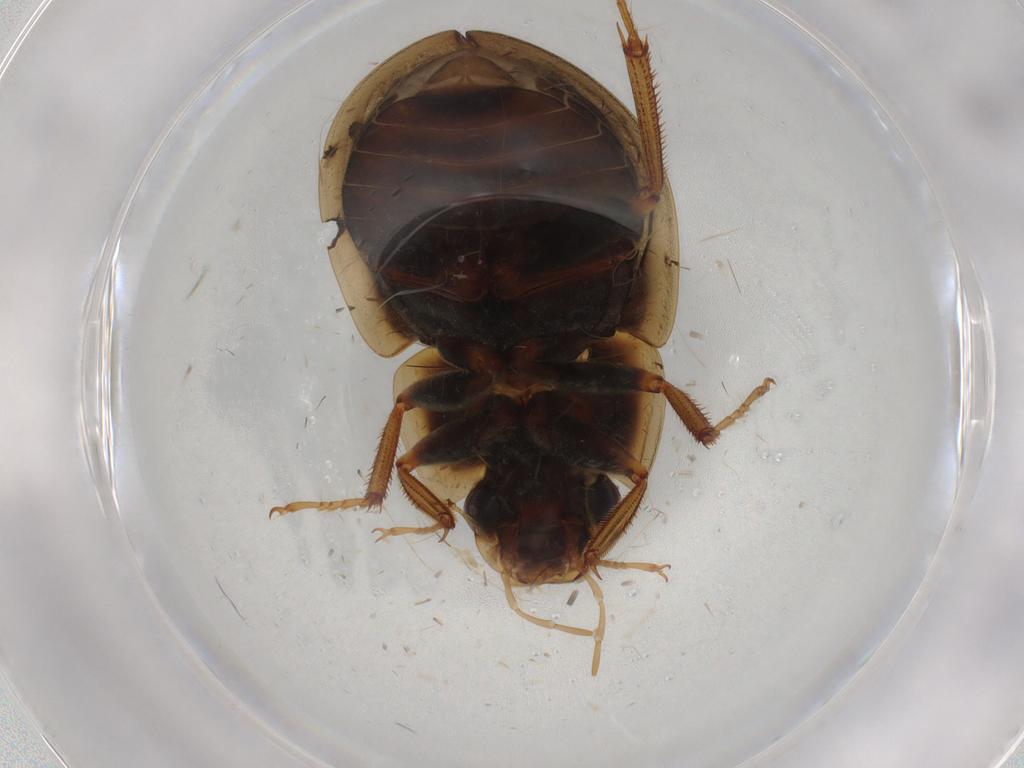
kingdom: Animalia
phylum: Arthropoda
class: Insecta
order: Coleoptera
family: Hydrophilidae
